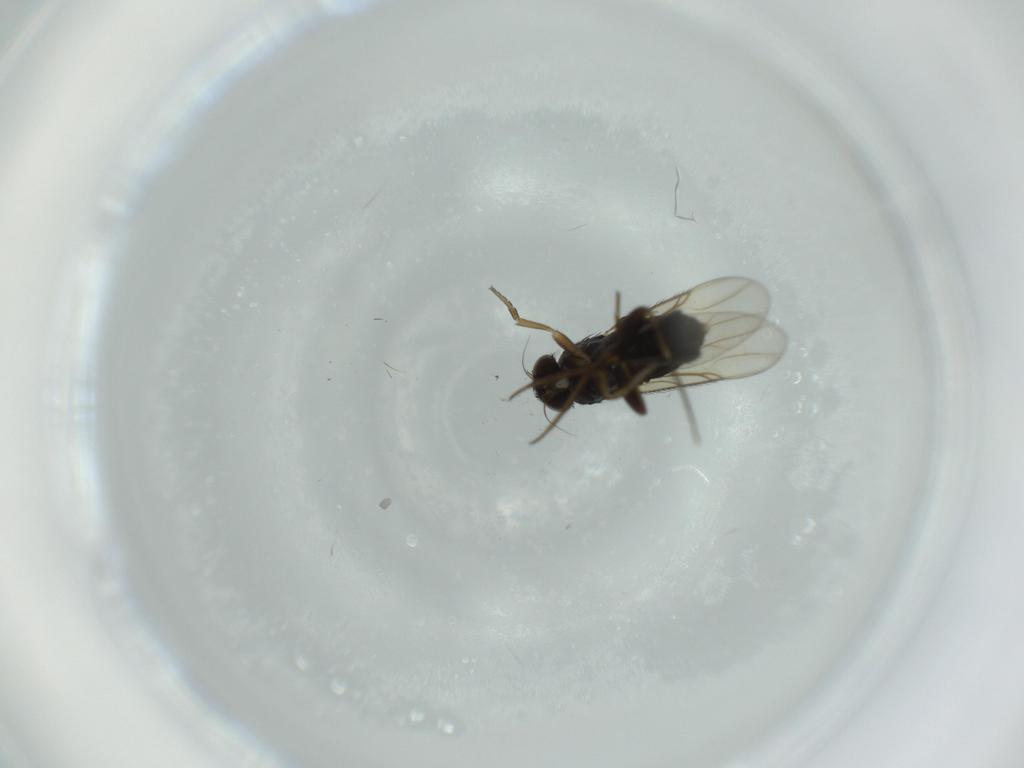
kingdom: Animalia
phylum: Arthropoda
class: Insecta
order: Diptera
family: Phoridae
